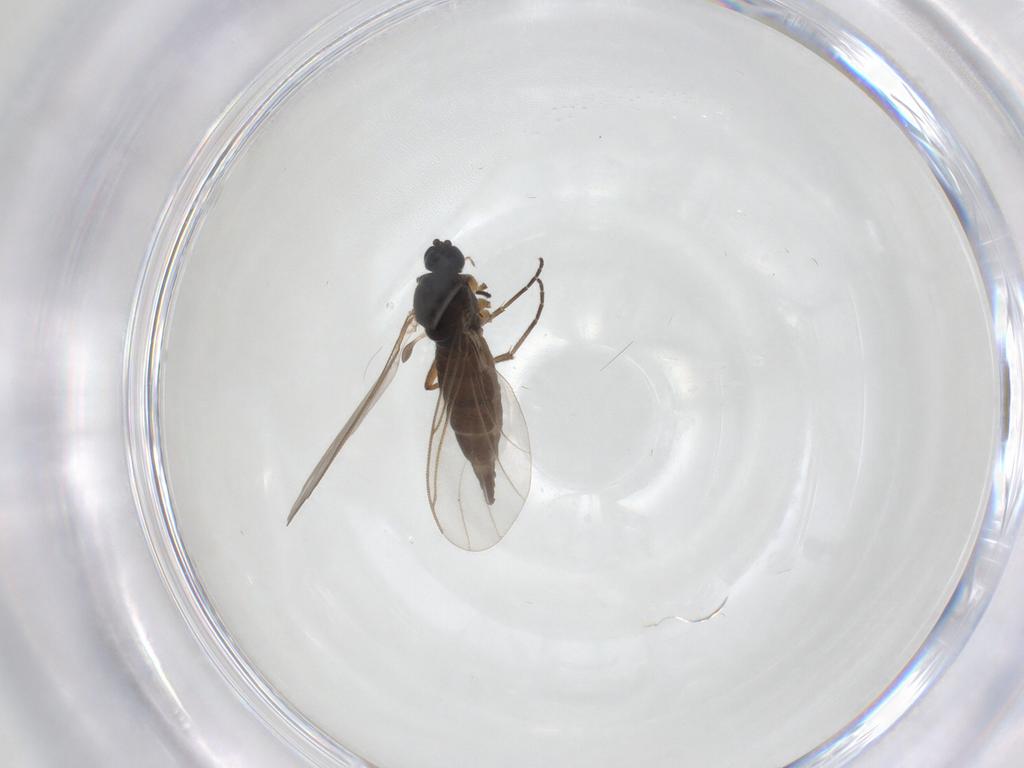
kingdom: Animalia
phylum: Arthropoda
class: Insecta
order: Diptera
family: Sciaridae
